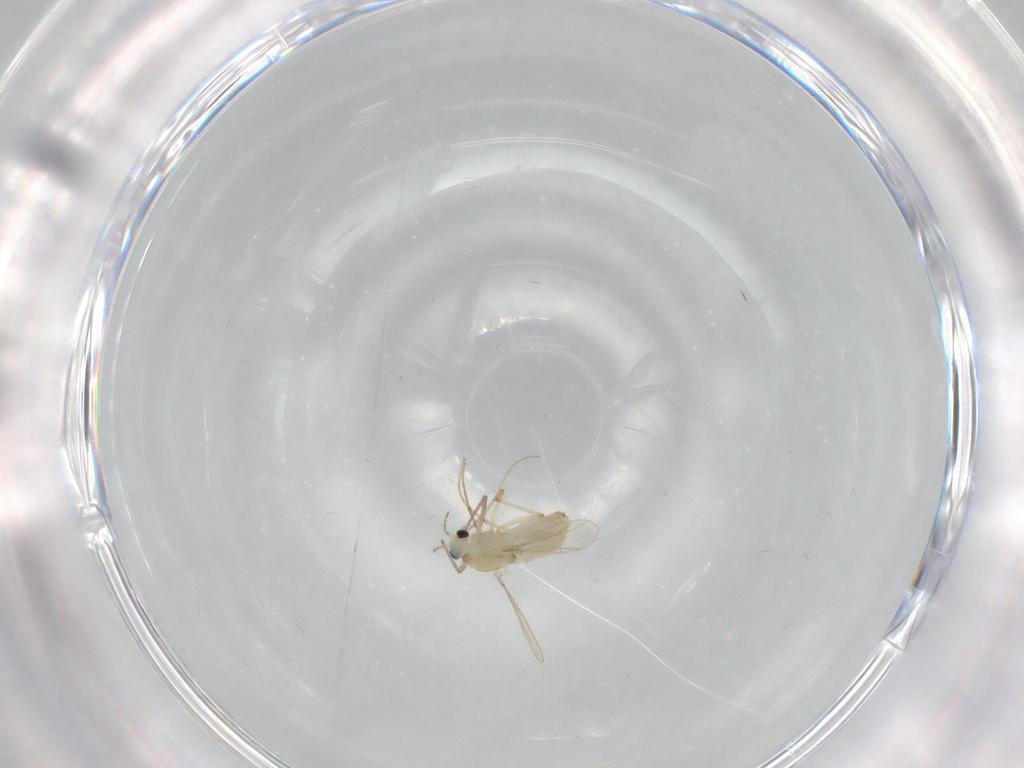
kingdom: Animalia
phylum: Arthropoda
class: Insecta
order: Diptera
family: Chironomidae
